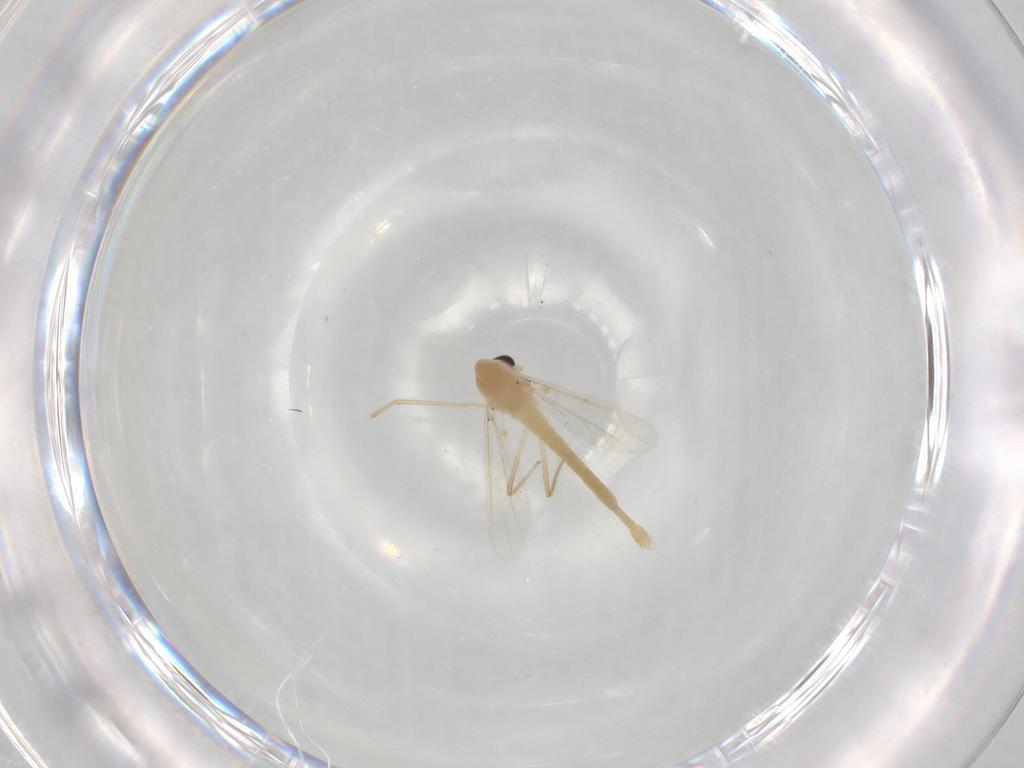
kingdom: Animalia
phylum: Arthropoda
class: Insecta
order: Diptera
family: Chironomidae
